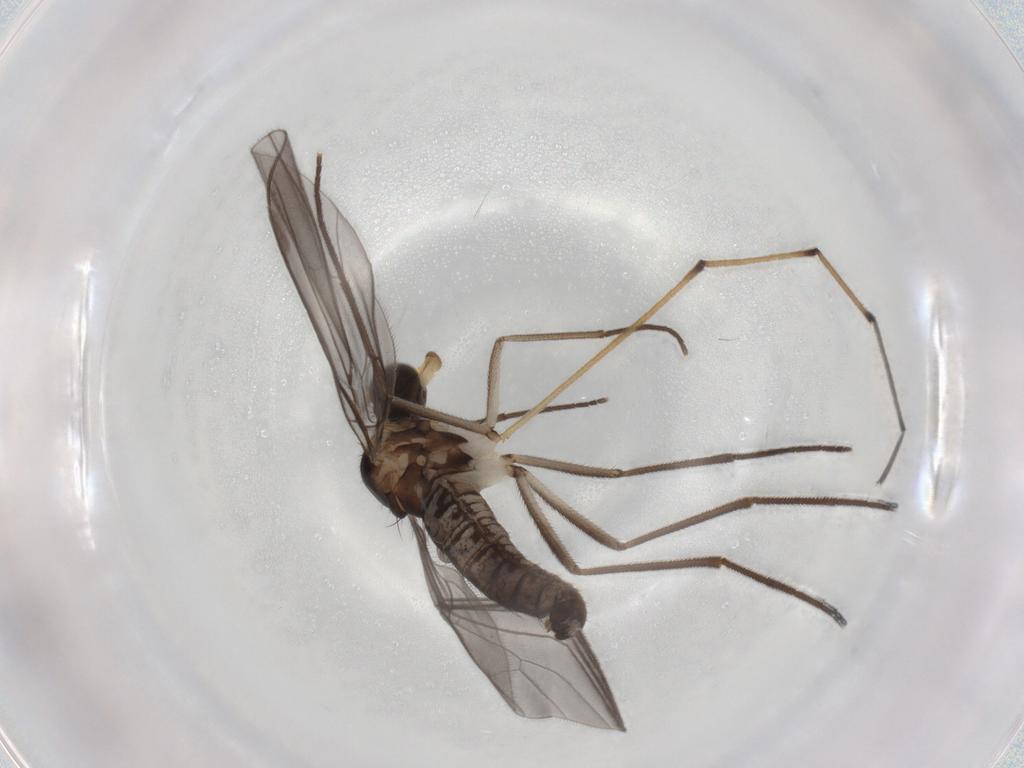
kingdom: Animalia
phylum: Arthropoda
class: Insecta
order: Diptera
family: Chironomidae
